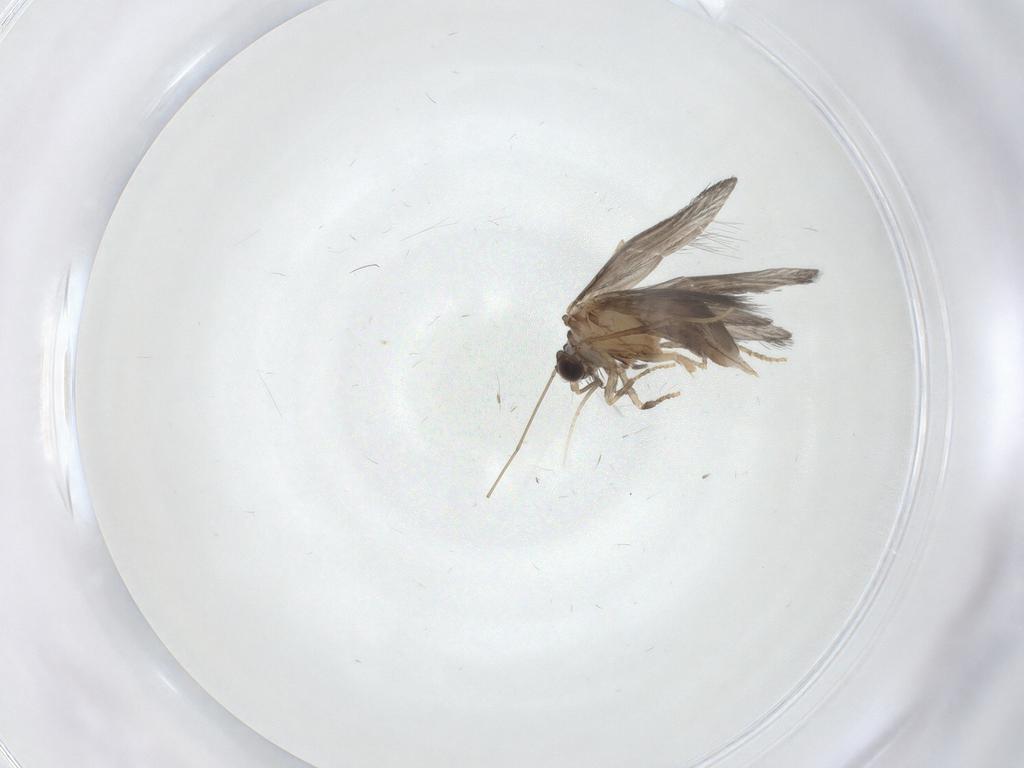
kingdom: Animalia
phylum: Arthropoda
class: Insecta
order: Trichoptera
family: Hydroptilidae
